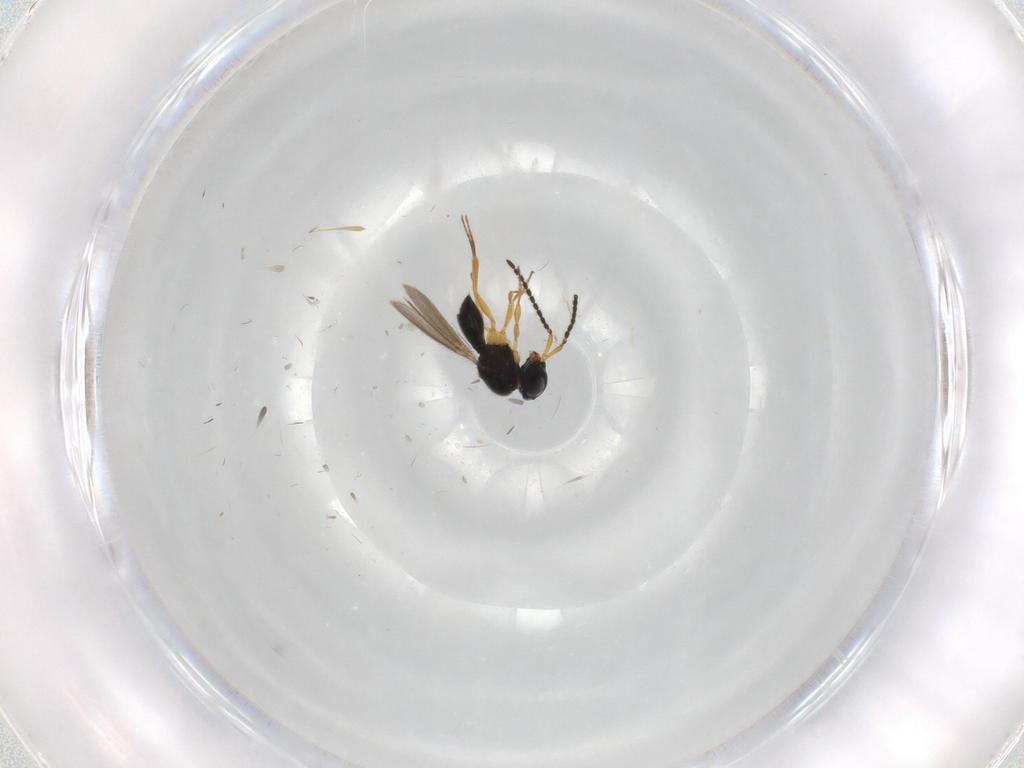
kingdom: Animalia
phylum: Arthropoda
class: Insecta
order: Hymenoptera
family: Scelionidae
